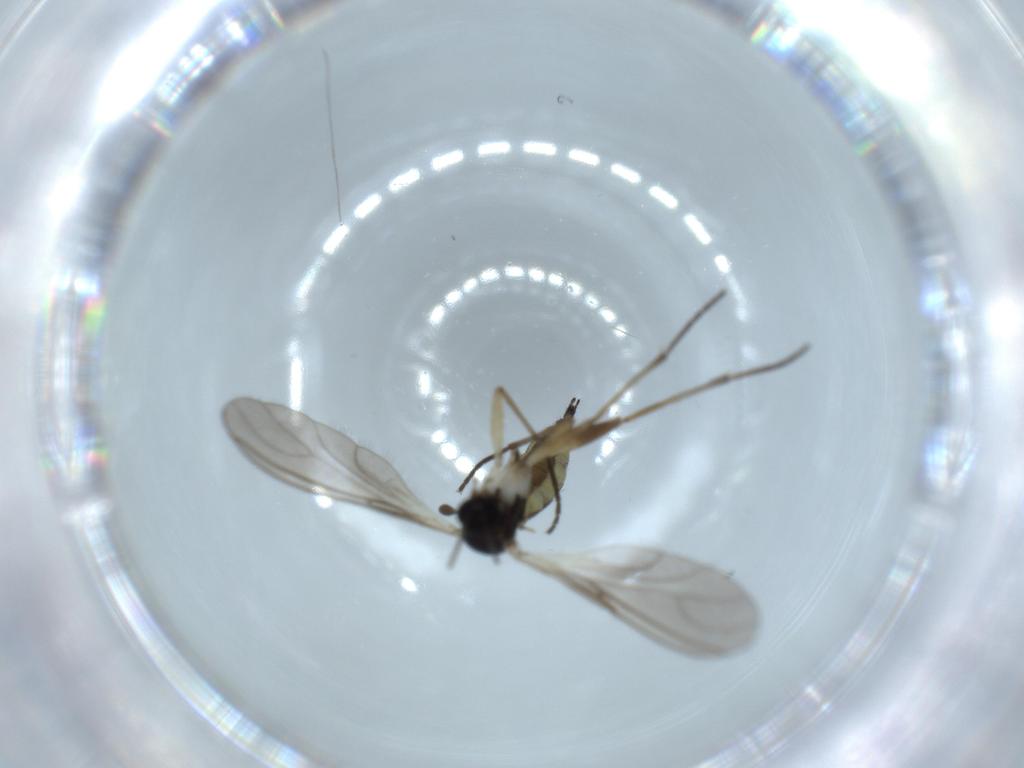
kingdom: Animalia
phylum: Arthropoda
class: Insecta
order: Diptera
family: Sciaridae
